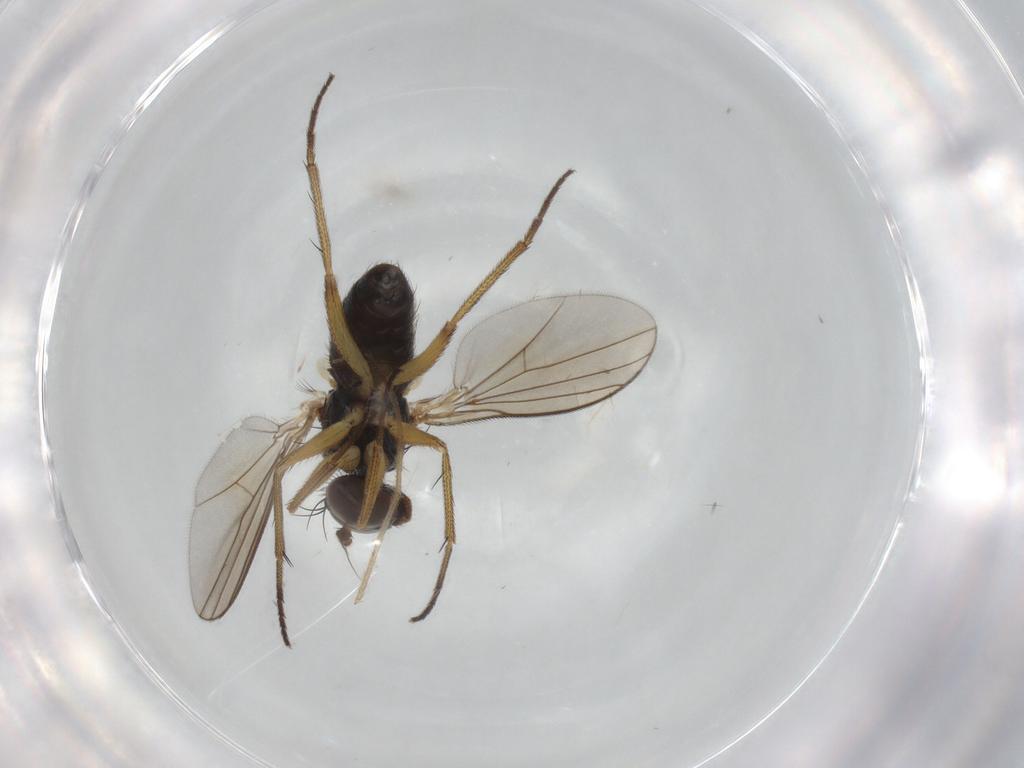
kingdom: Animalia
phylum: Arthropoda
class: Insecta
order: Diptera
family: Dolichopodidae
